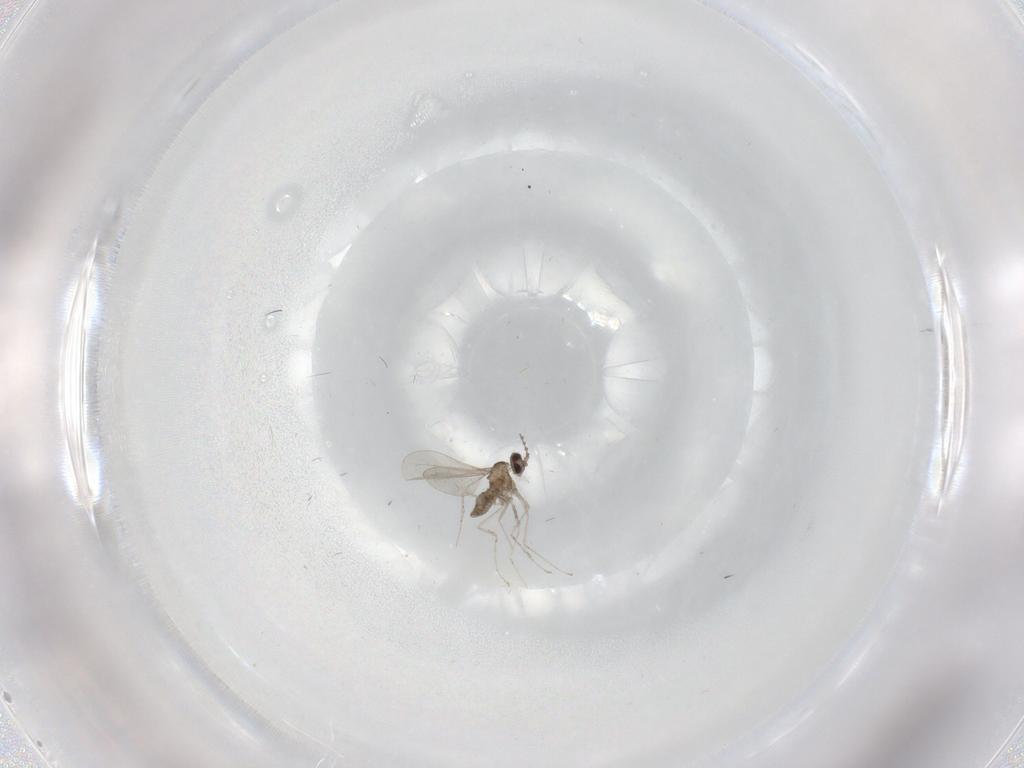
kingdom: Animalia
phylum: Arthropoda
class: Insecta
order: Diptera
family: Cecidomyiidae
